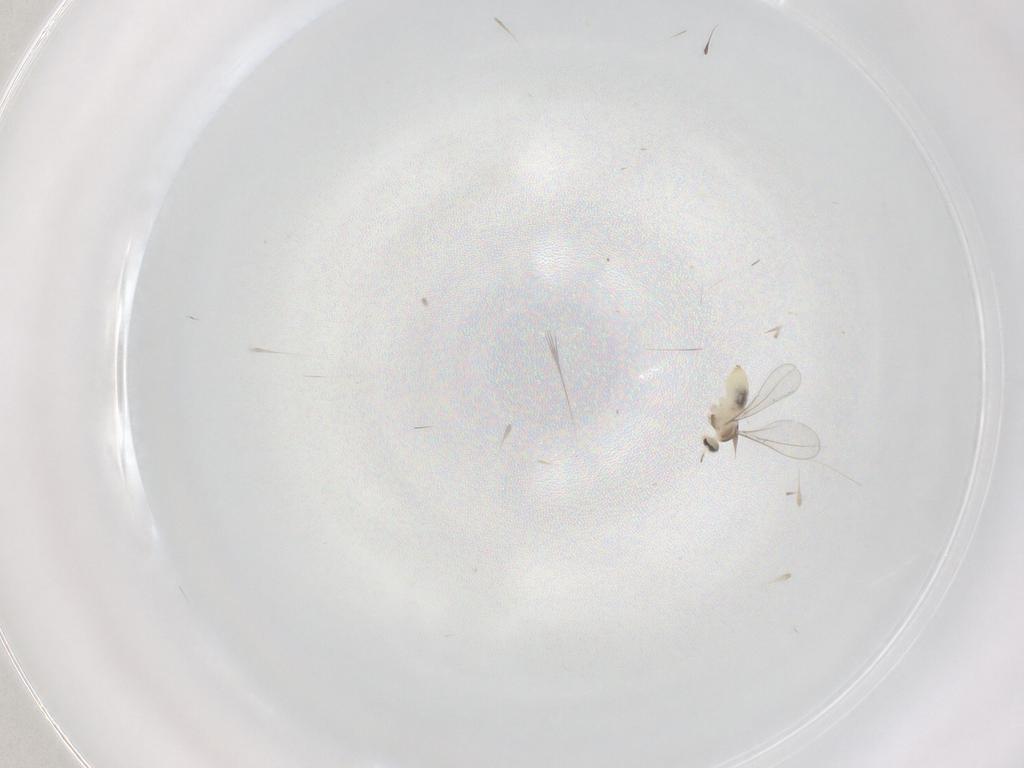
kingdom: Animalia
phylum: Arthropoda
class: Insecta
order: Diptera
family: Cecidomyiidae
